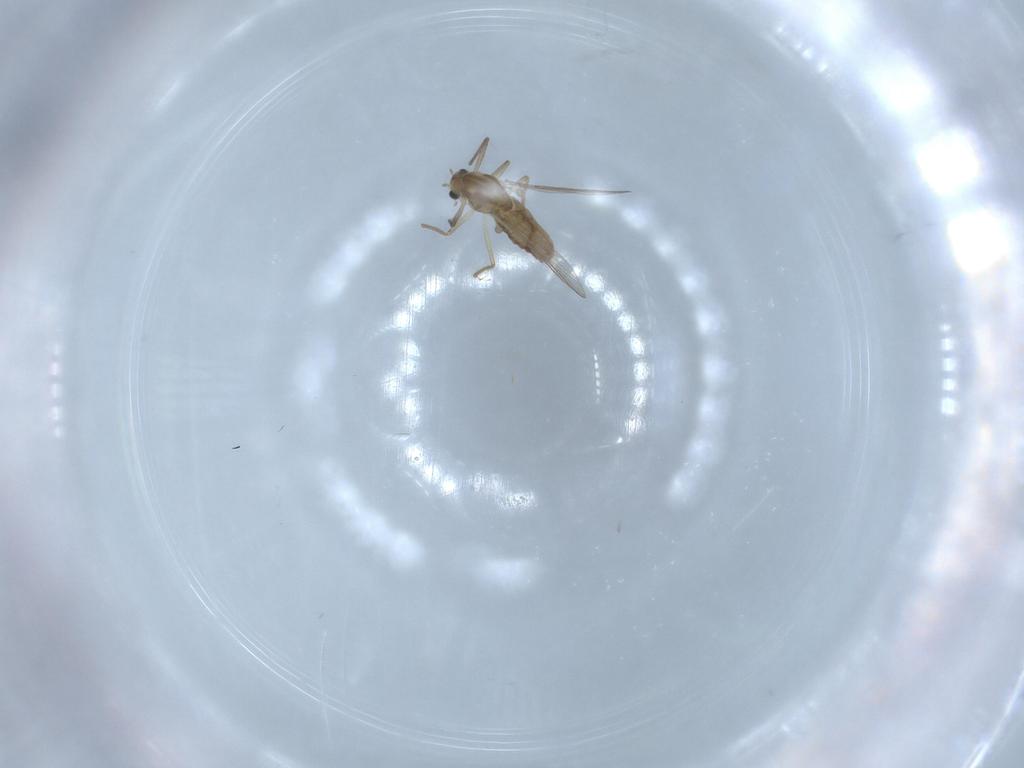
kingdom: Animalia
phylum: Arthropoda
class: Insecta
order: Diptera
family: Chironomidae
